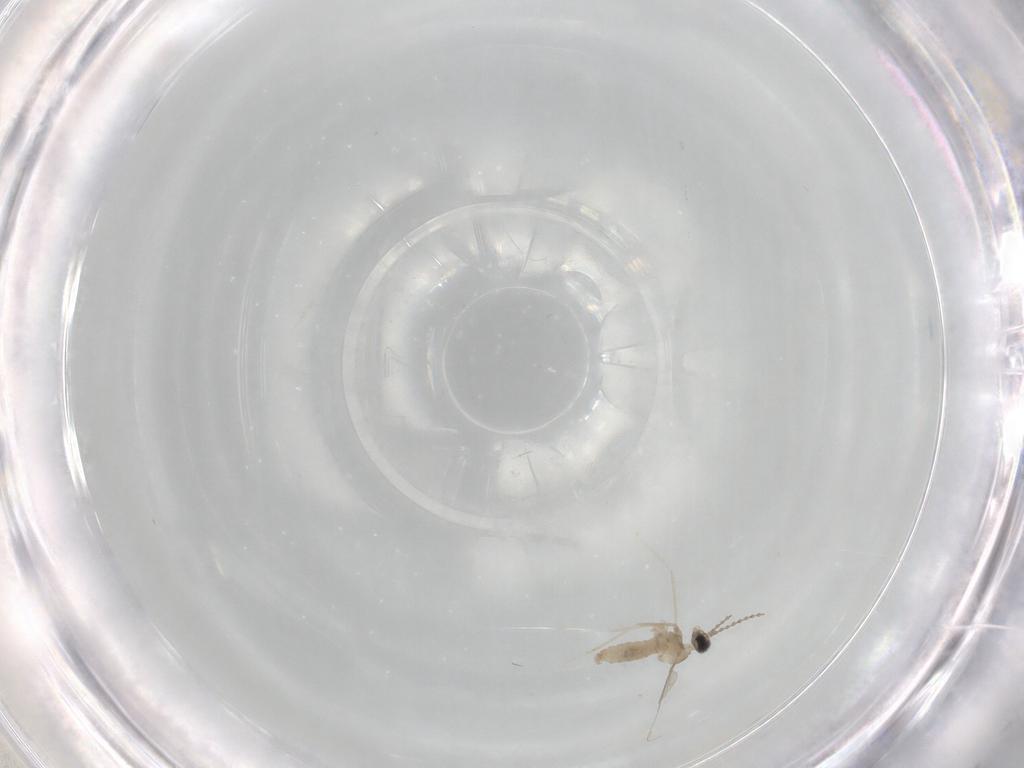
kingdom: Animalia
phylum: Arthropoda
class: Insecta
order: Diptera
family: Cecidomyiidae
